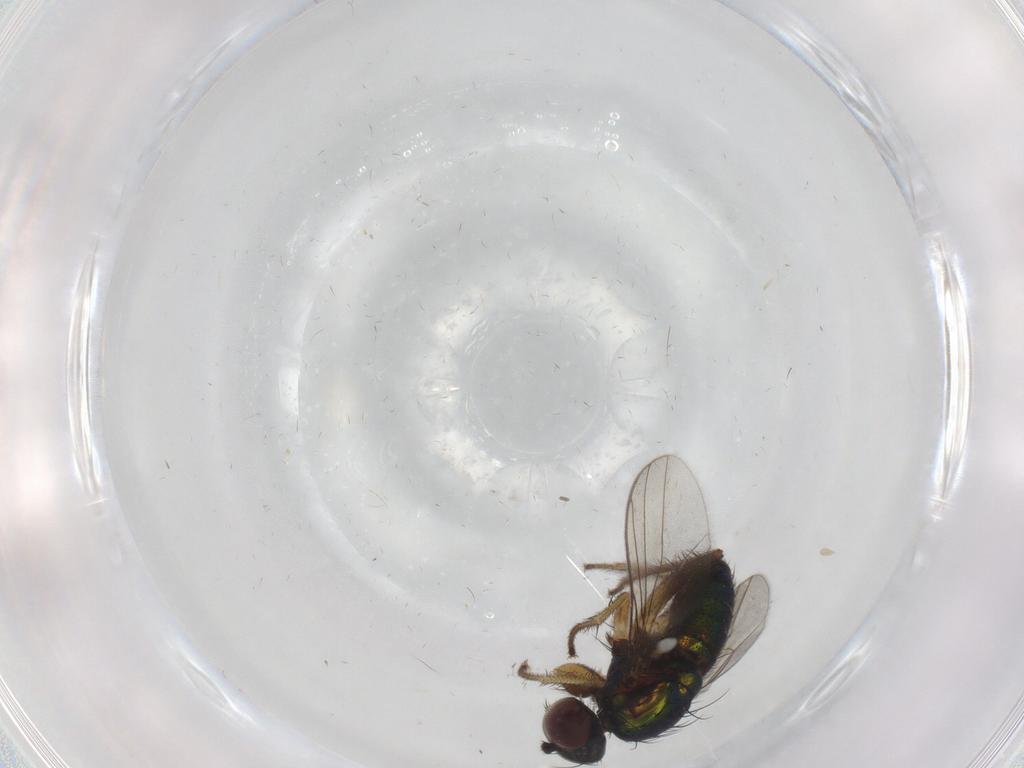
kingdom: Animalia
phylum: Arthropoda
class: Insecta
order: Diptera
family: Dolichopodidae
